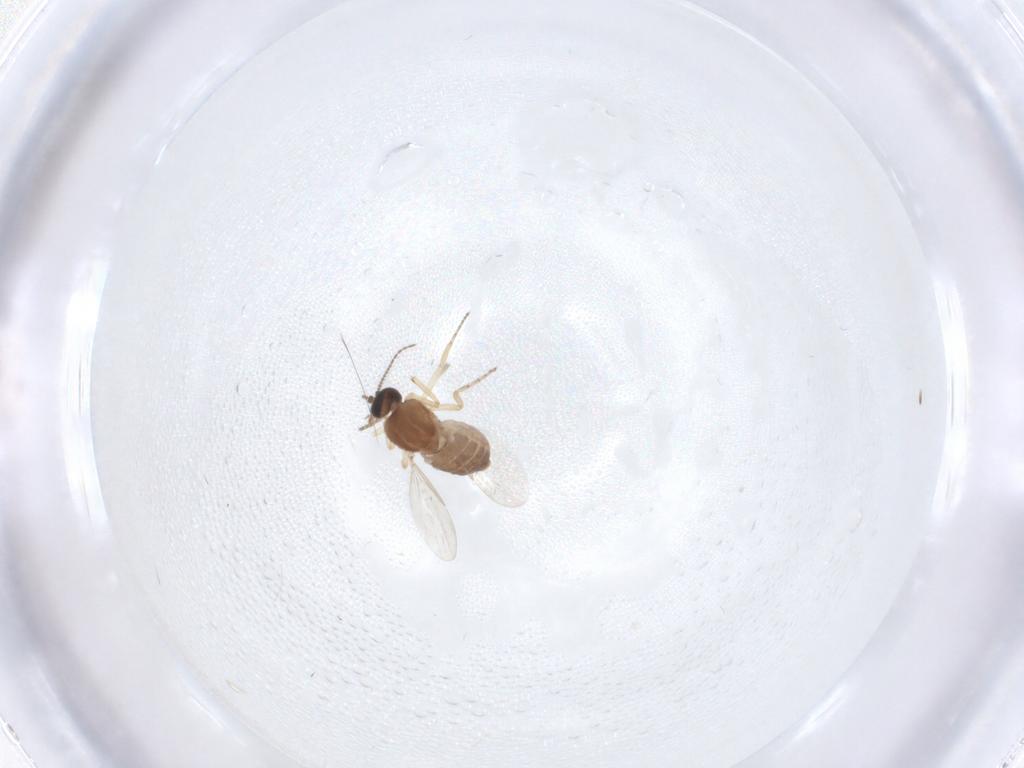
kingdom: Animalia
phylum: Arthropoda
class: Insecta
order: Diptera
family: Ceratopogonidae
